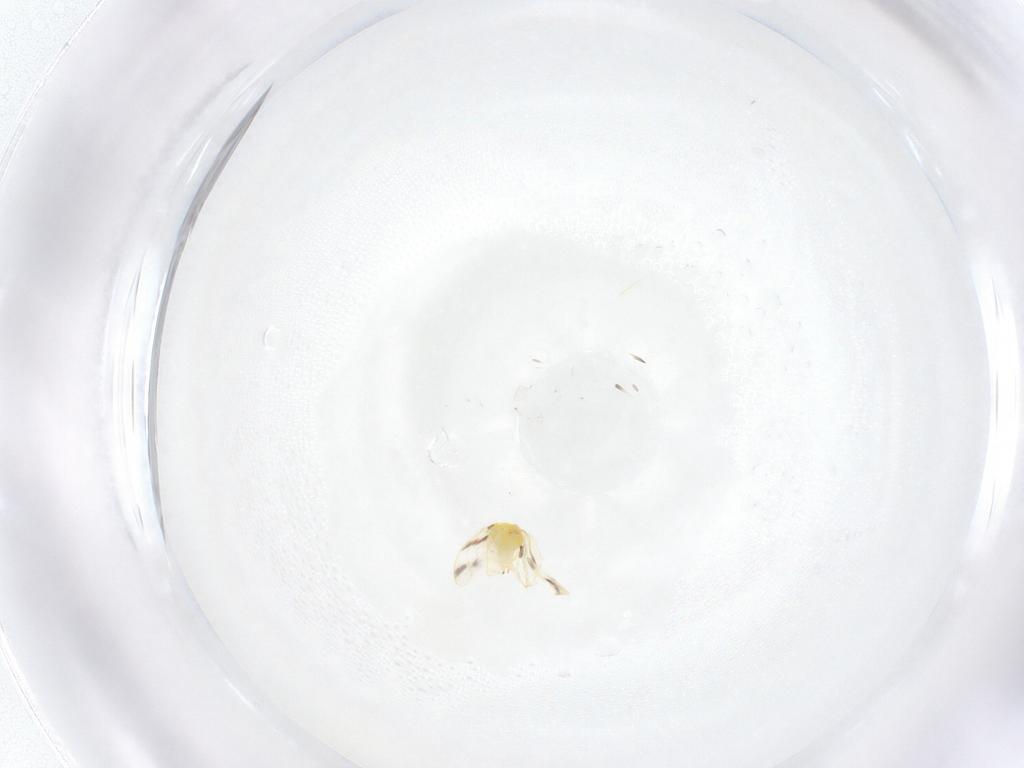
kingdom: Animalia
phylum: Arthropoda
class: Insecta
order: Hemiptera
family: Aleyrodidae
